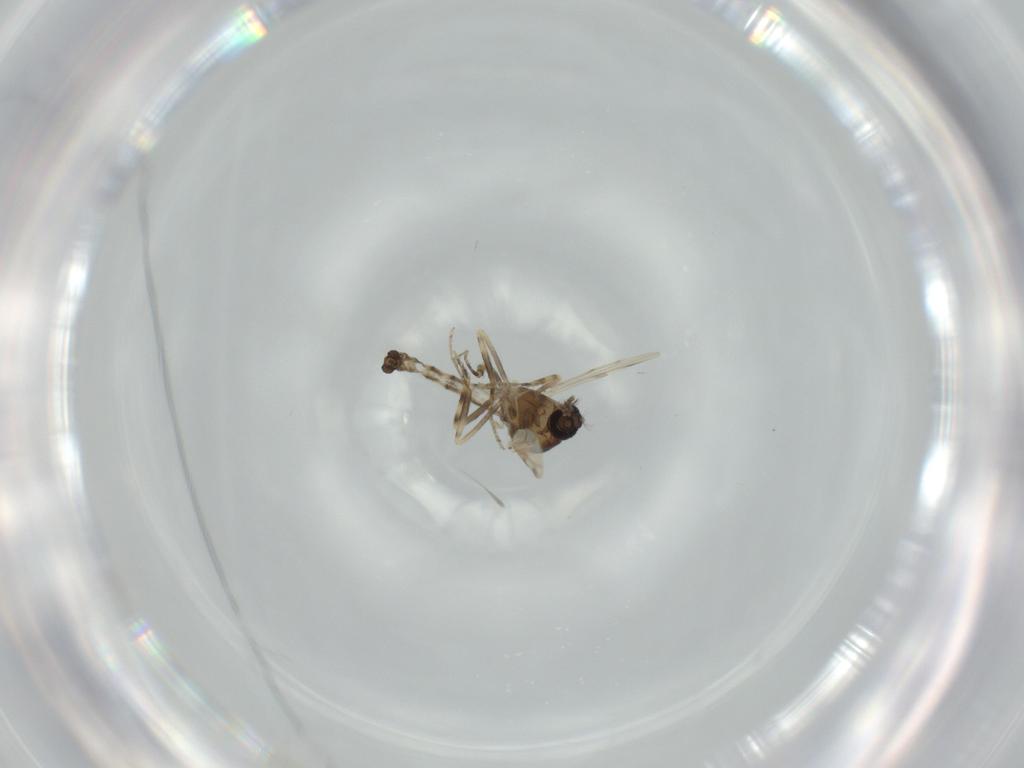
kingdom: Animalia
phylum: Arthropoda
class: Insecta
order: Diptera
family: Ceratopogonidae
